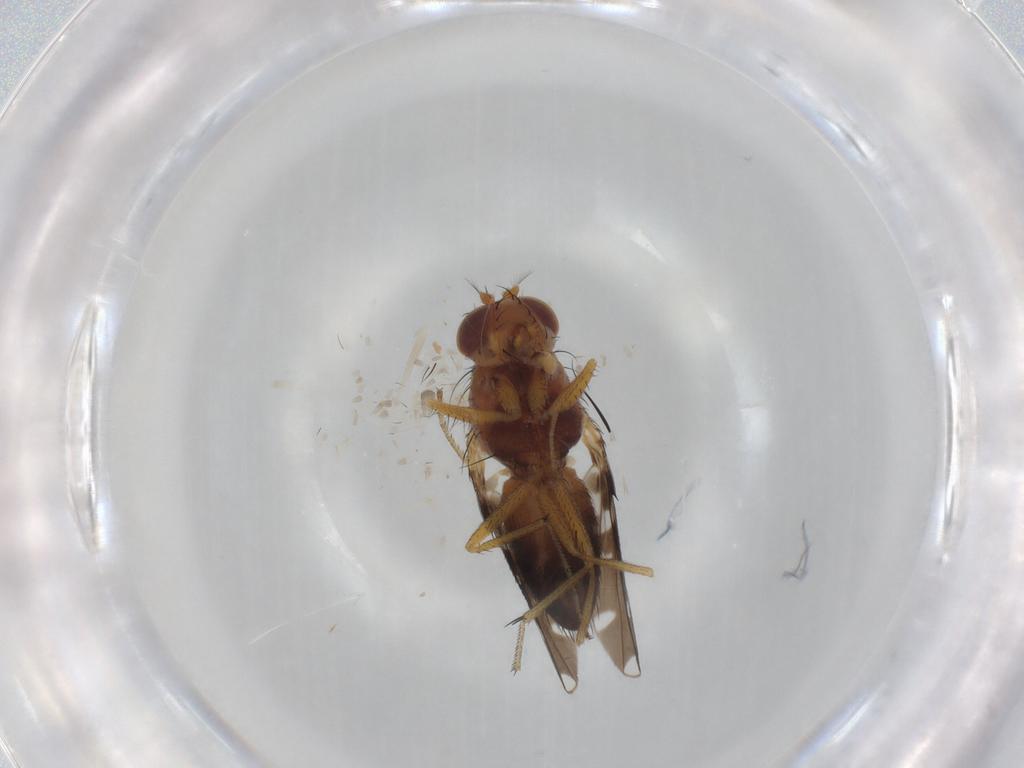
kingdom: Animalia
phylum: Arthropoda
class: Insecta
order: Diptera
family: Ephydridae
